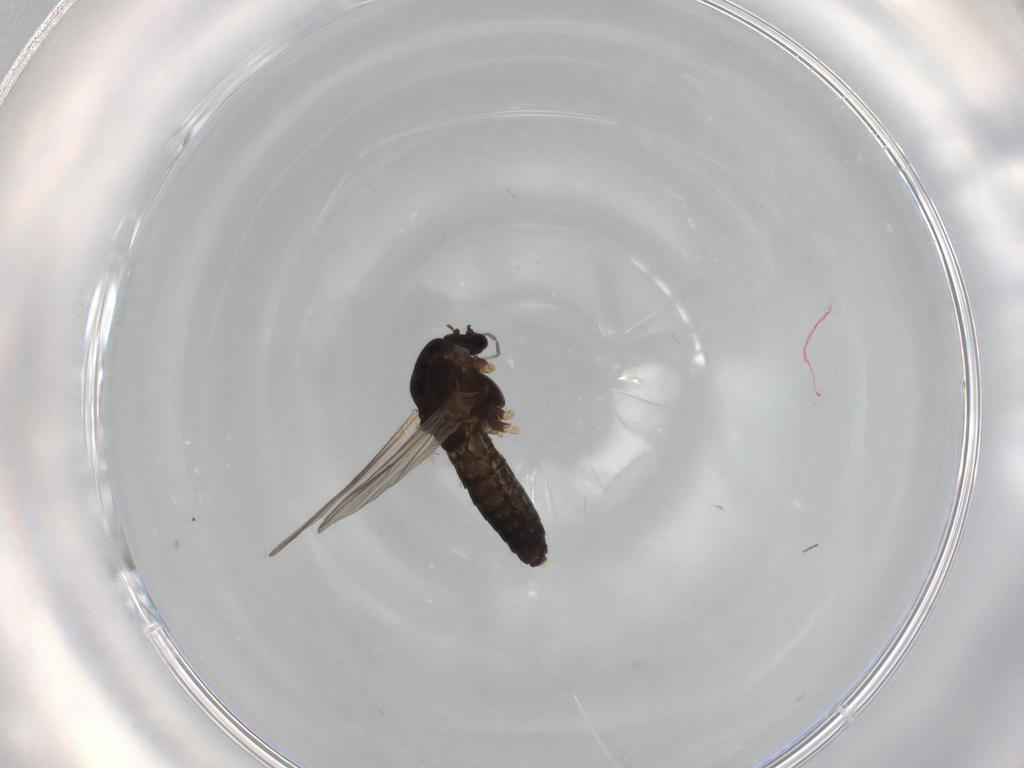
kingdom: Animalia
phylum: Arthropoda
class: Insecta
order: Diptera
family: Chironomidae
